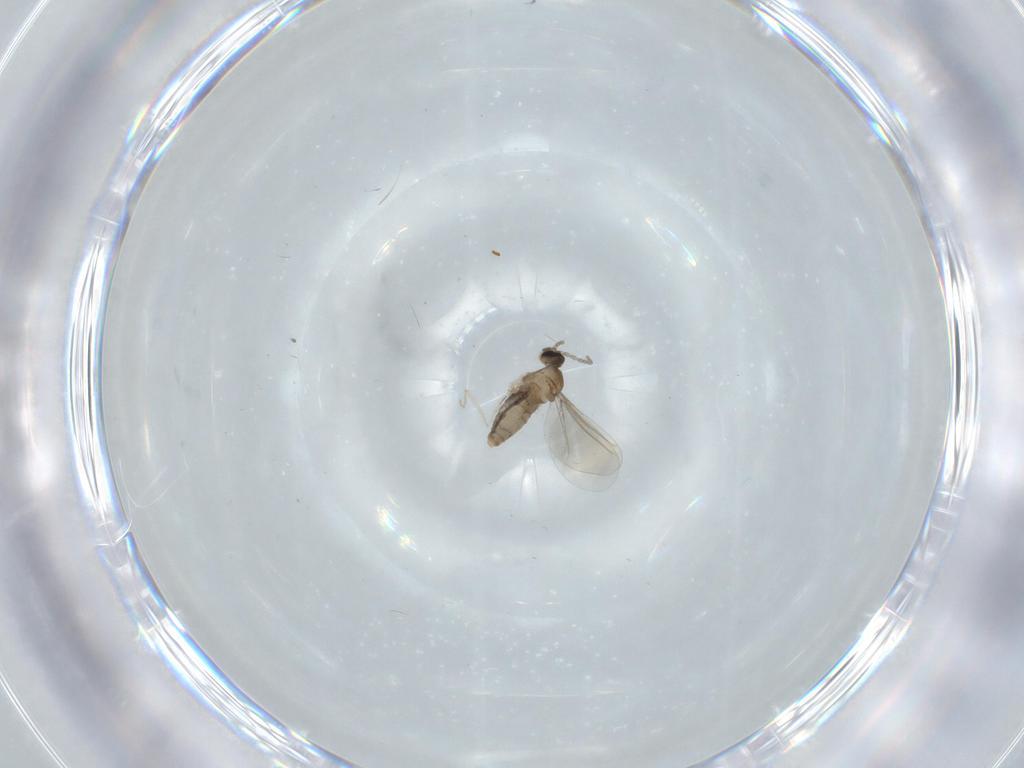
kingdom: Animalia
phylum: Arthropoda
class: Insecta
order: Diptera
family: Cecidomyiidae
